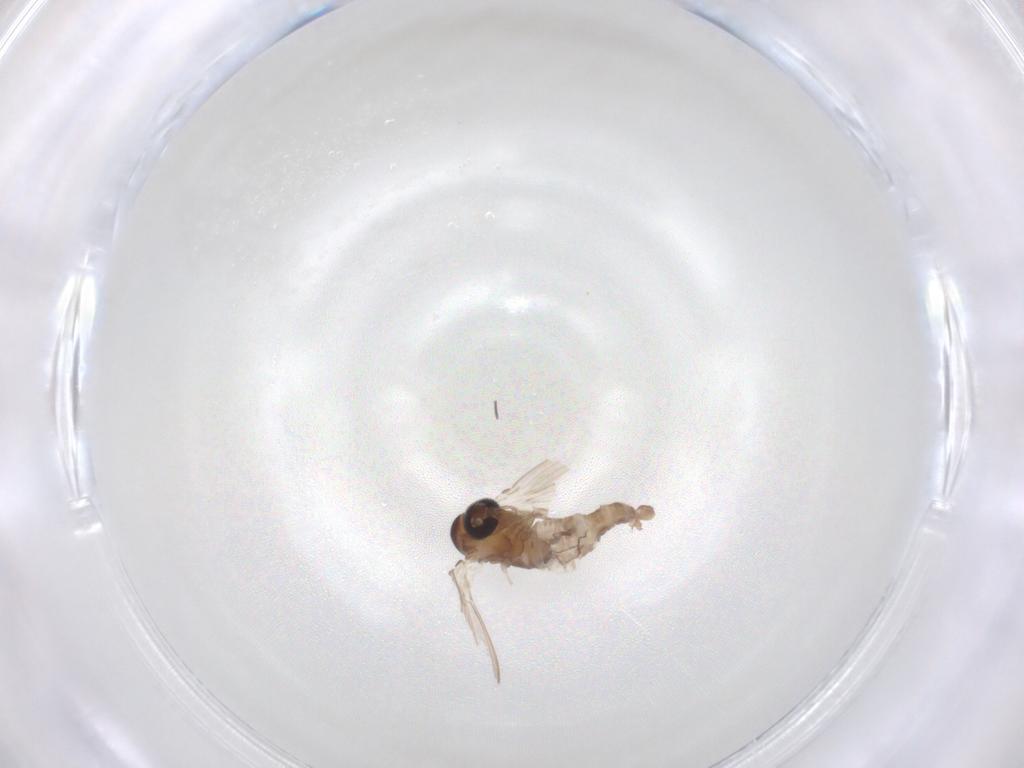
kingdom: Animalia
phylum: Arthropoda
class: Insecta
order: Diptera
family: Psychodidae
